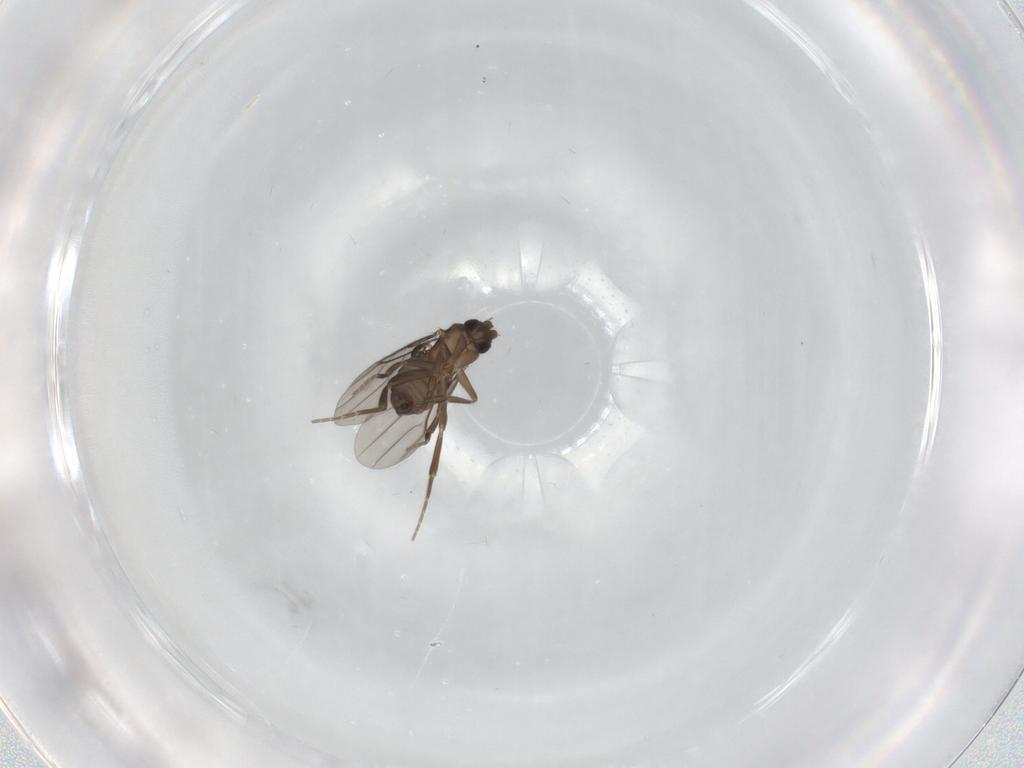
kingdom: Animalia
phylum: Arthropoda
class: Insecta
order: Diptera
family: Phoridae
